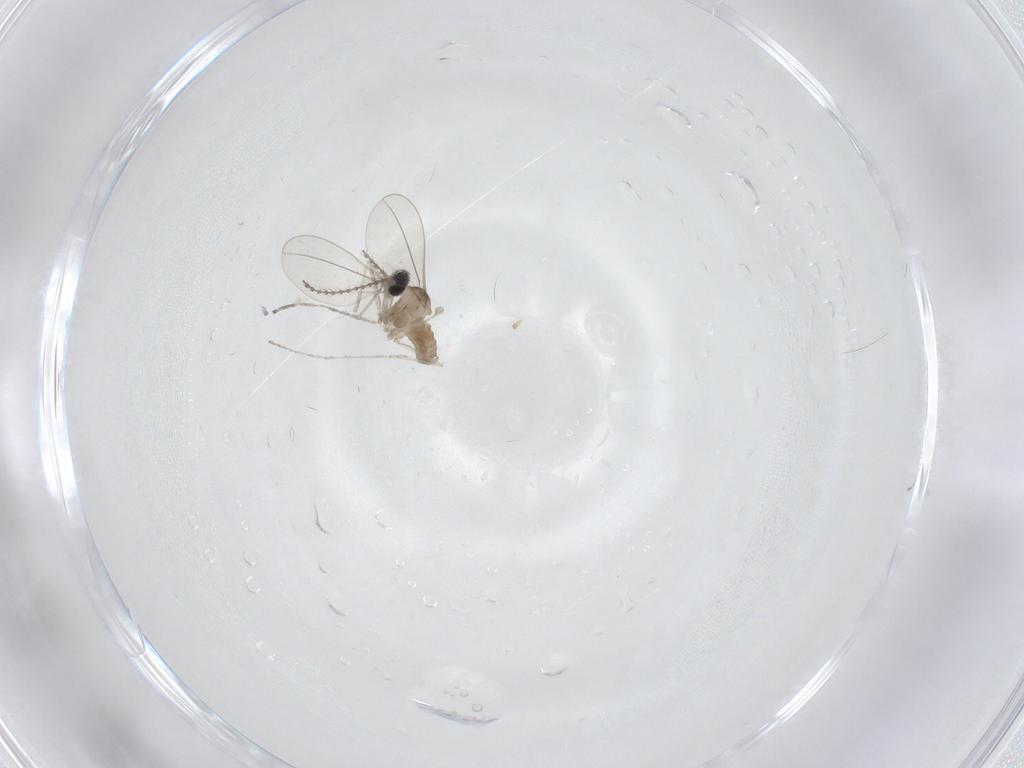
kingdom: Animalia
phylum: Arthropoda
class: Insecta
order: Diptera
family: Cecidomyiidae
